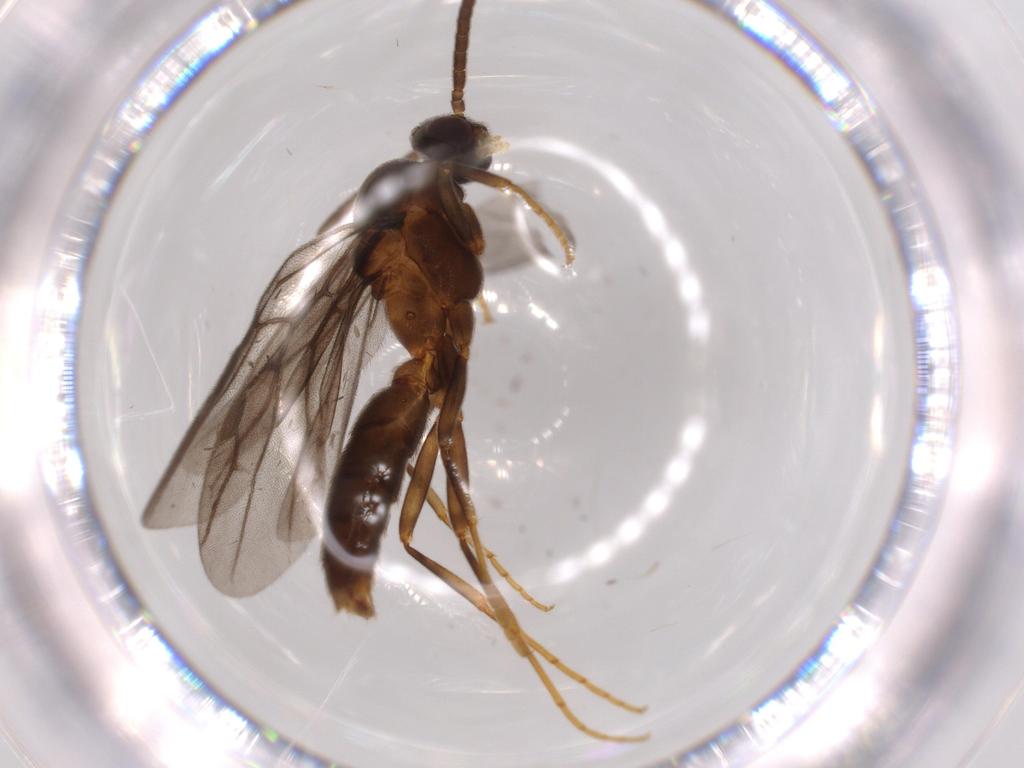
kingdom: Animalia
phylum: Arthropoda
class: Insecta
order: Hymenoptera
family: Formicidae
